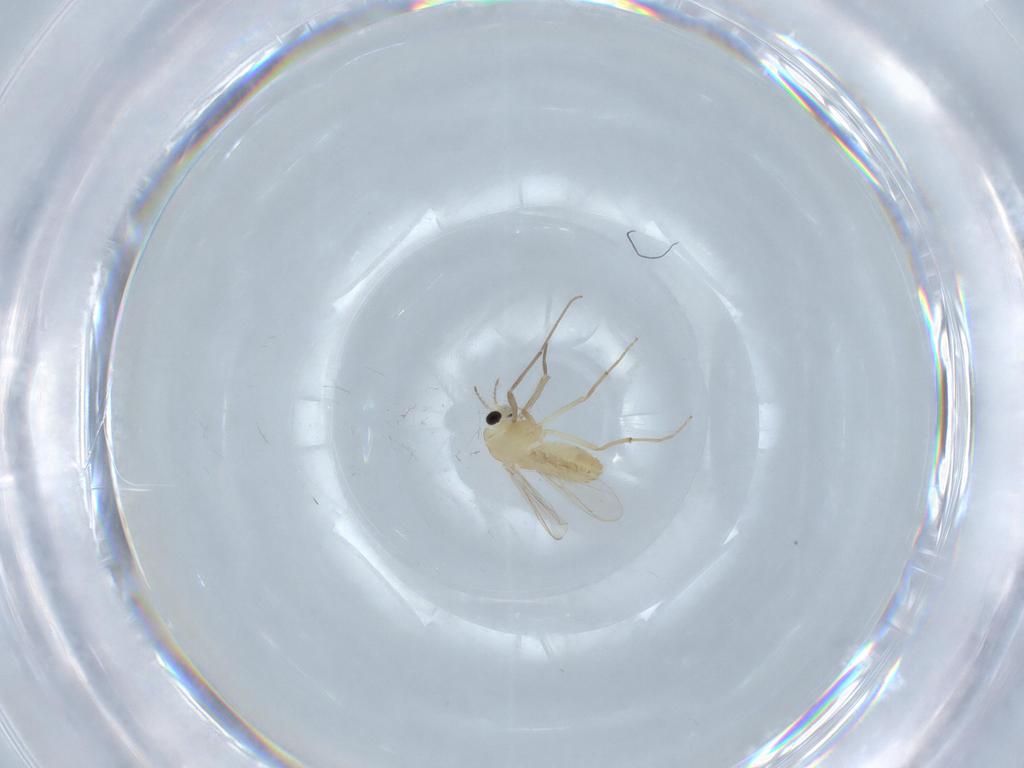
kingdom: Animalia
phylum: Arthropoda
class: Insecta
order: Diptera
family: Chironomidae
